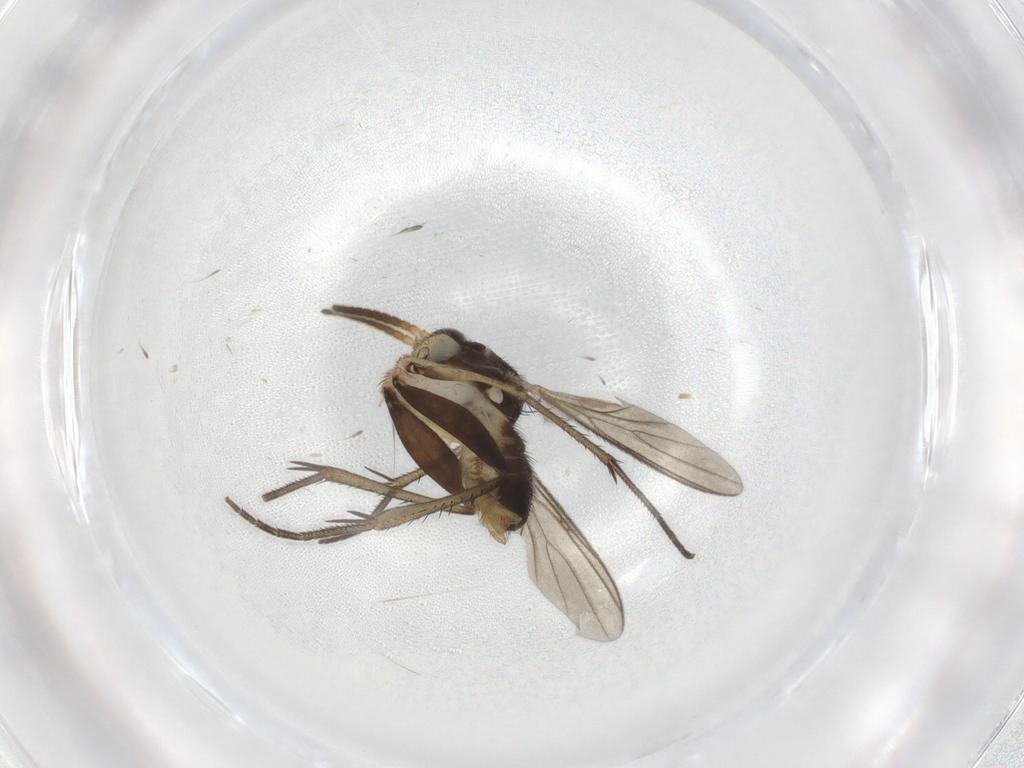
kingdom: Animalia
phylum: Arthropoda
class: Insecta
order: Diptera
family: Sciaridae
